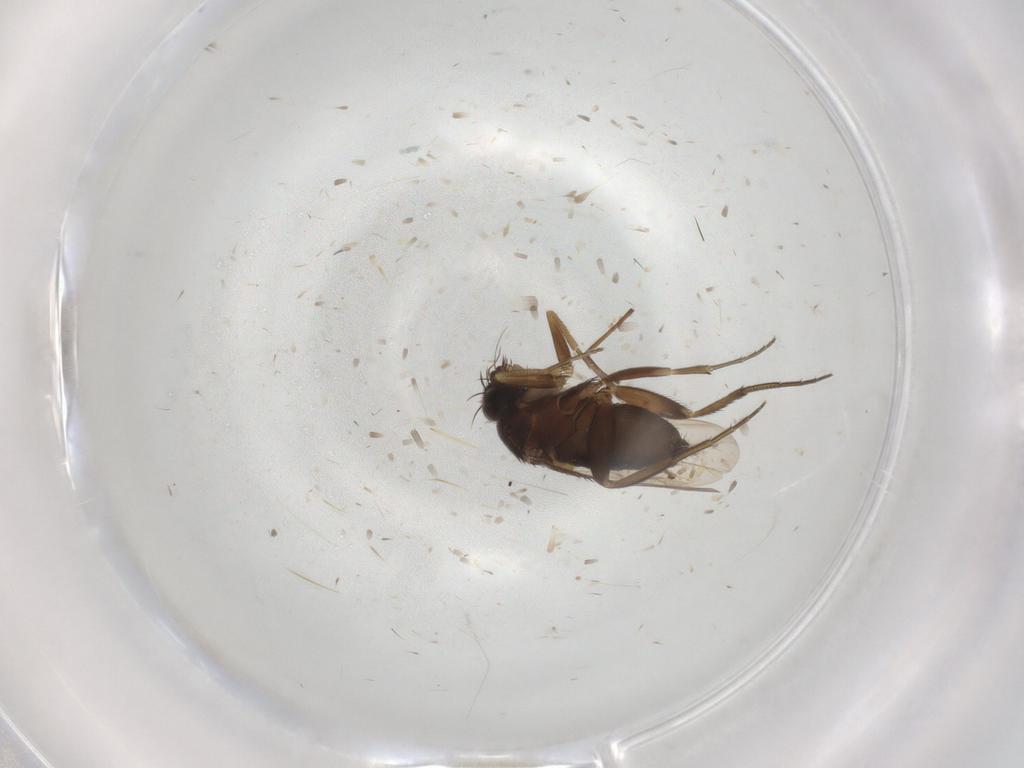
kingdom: Animalia
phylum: Arthropoda
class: Insecta
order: Diptera
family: Phoridae
